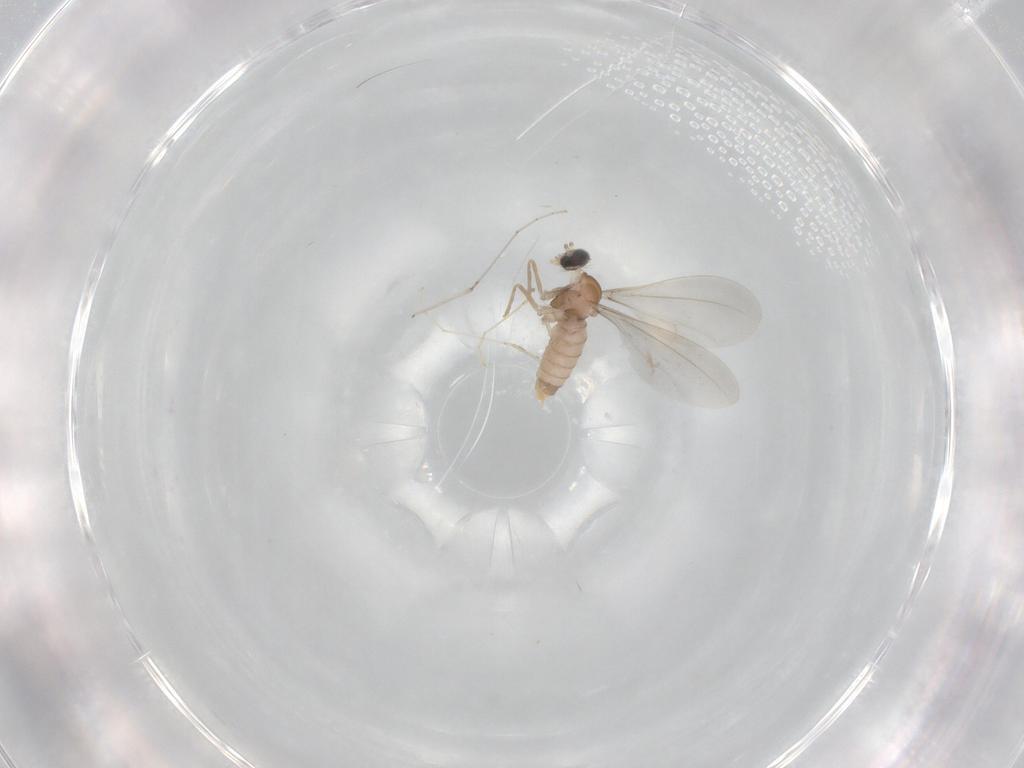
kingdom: Animalia
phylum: Arthropoda
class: Insecta
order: Diptera
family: Cecidomyiidae
